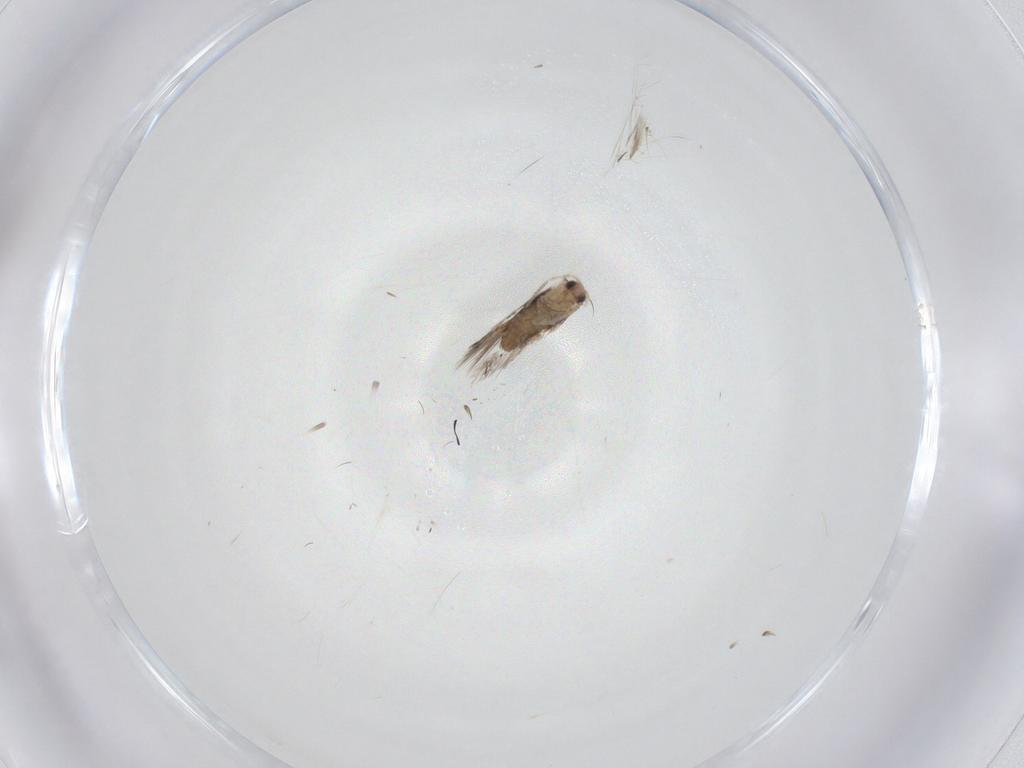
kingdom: Animalia
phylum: Arthropoda
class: Insecta
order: Lepidoptera
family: Nepticulidae
